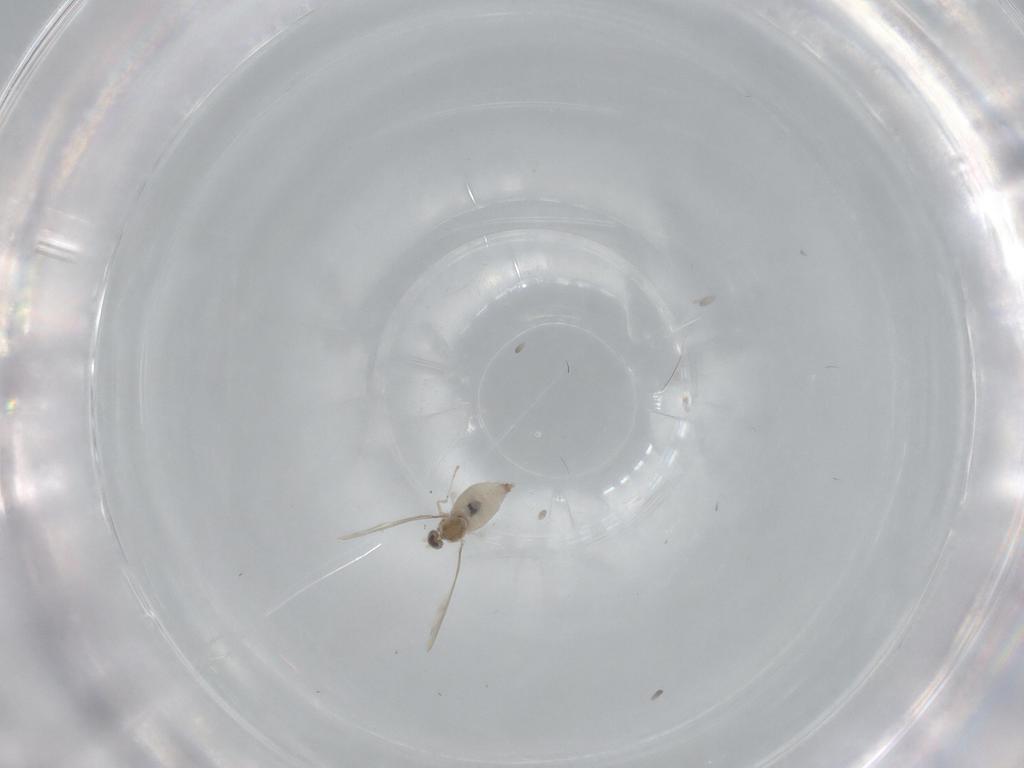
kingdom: Animalia
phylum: Arthropoda
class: Insecta
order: Diptera
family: Cecidomyiidae
